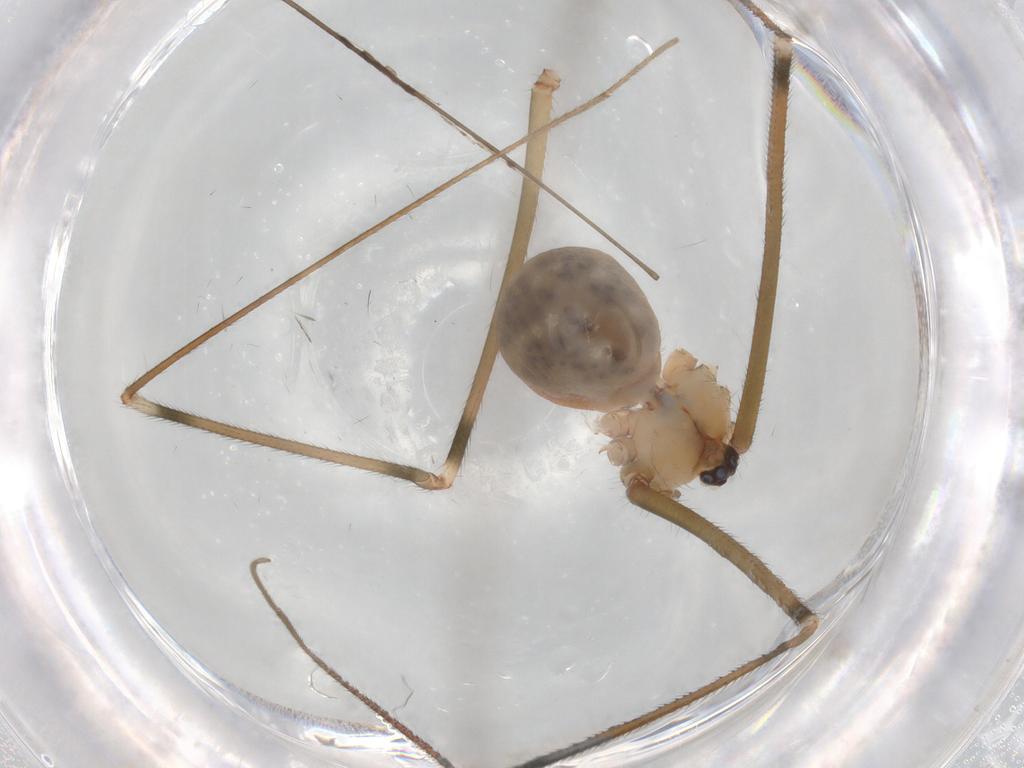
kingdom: Animalia
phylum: Arthropoda
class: Arachnida
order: Araneae
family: Pholcidae
